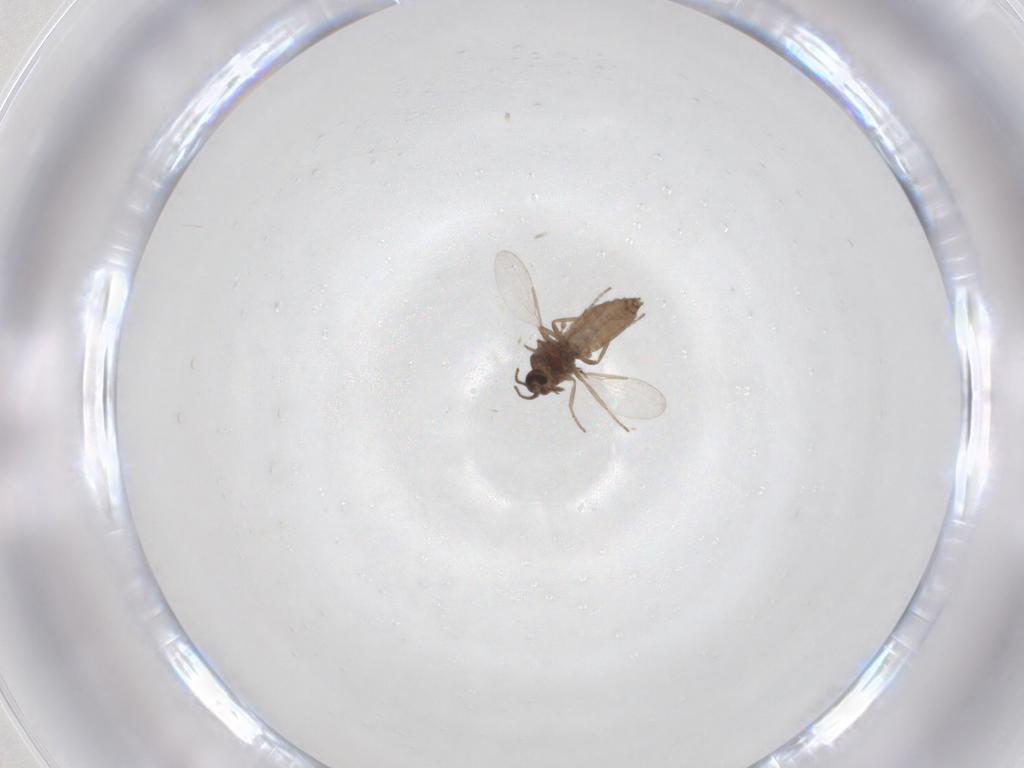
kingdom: Animalia
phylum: Arthropoda
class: Insecta
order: Diptera
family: Ceratopogonidae
